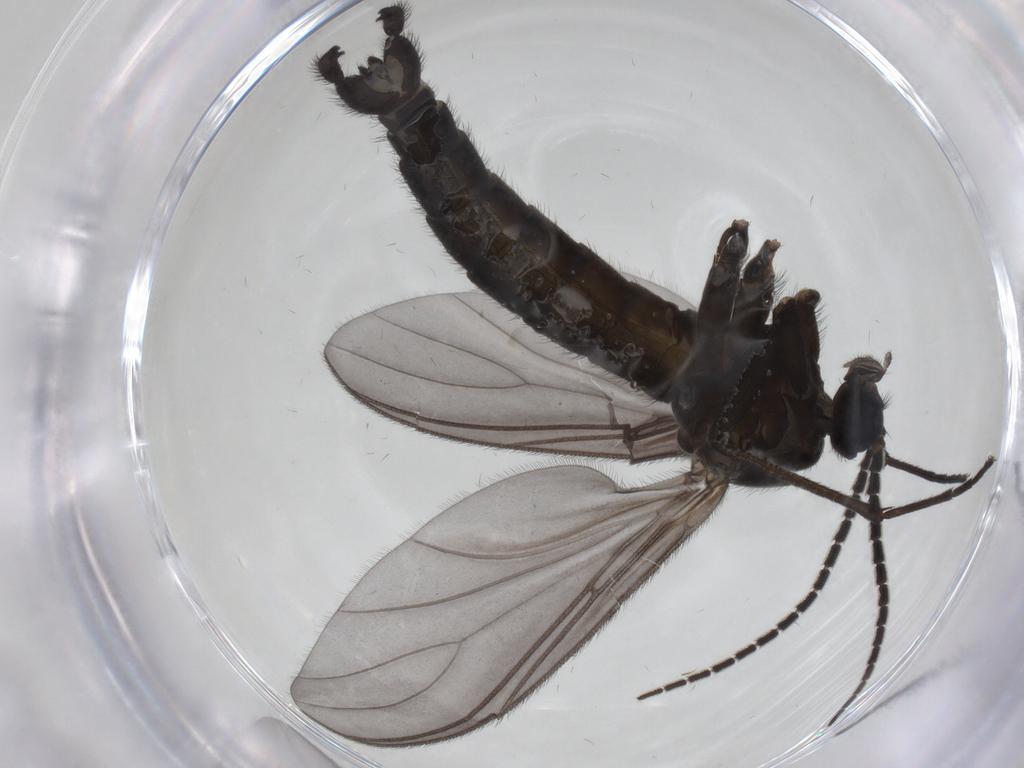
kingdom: Animalia
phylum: Arthropoda
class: Insecta
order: Diptera
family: Sciaridae
